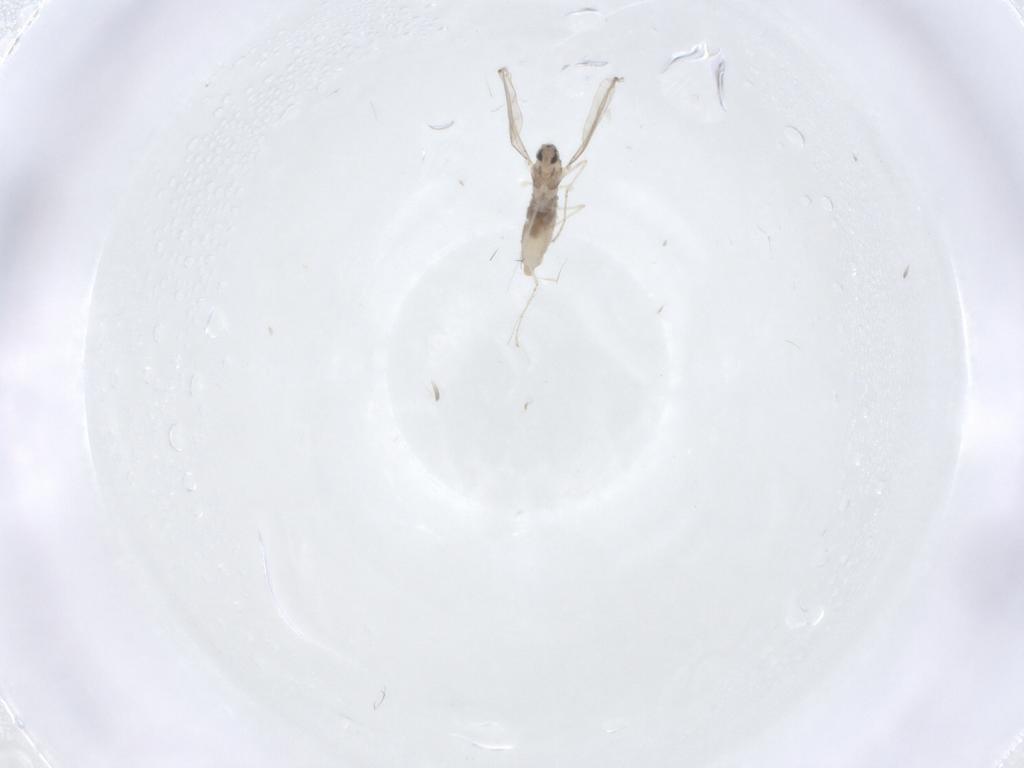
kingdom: Animalia
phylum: Arthropoda
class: Insecta
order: Diptera
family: Cecidomyiidae
